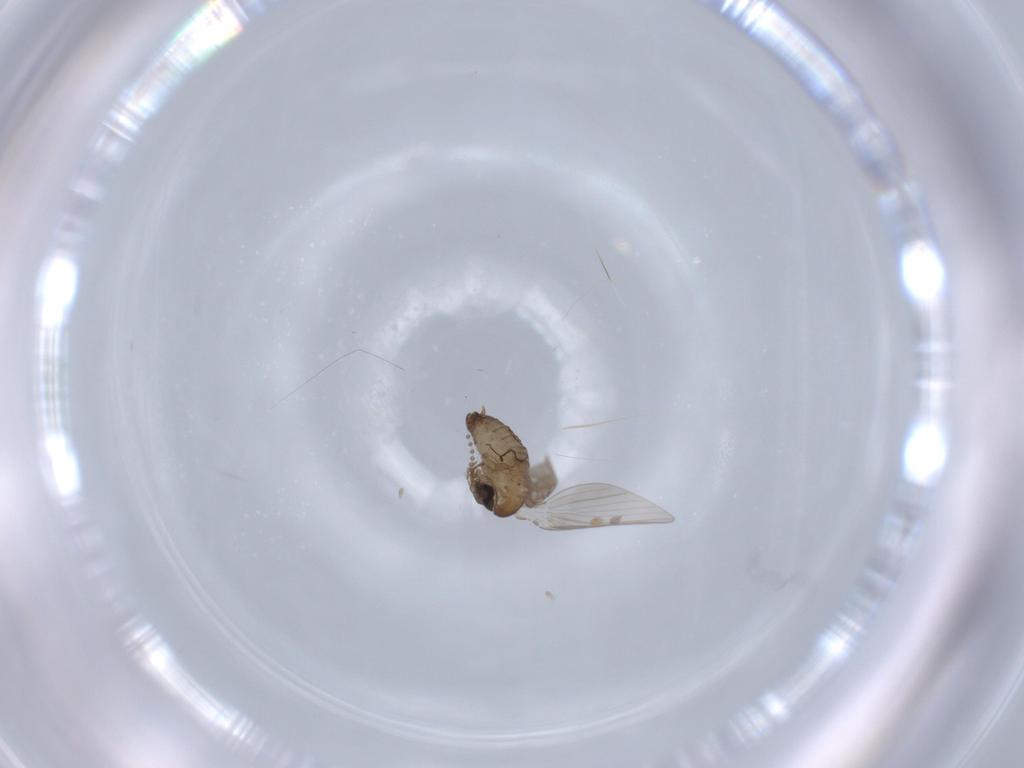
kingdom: Animalia
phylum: Arthropoda
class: Insecta
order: Diptera
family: Psychodidae
